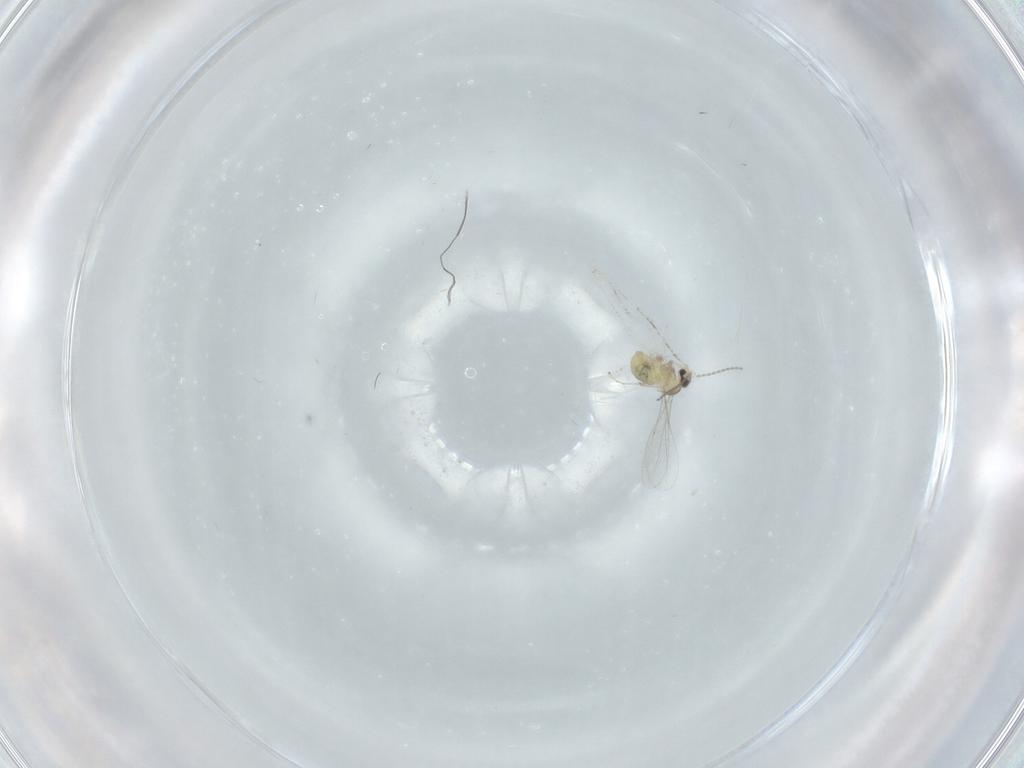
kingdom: Animalia
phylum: Arthropoda
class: Insecta
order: Diptera
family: Cecidomyiidae
